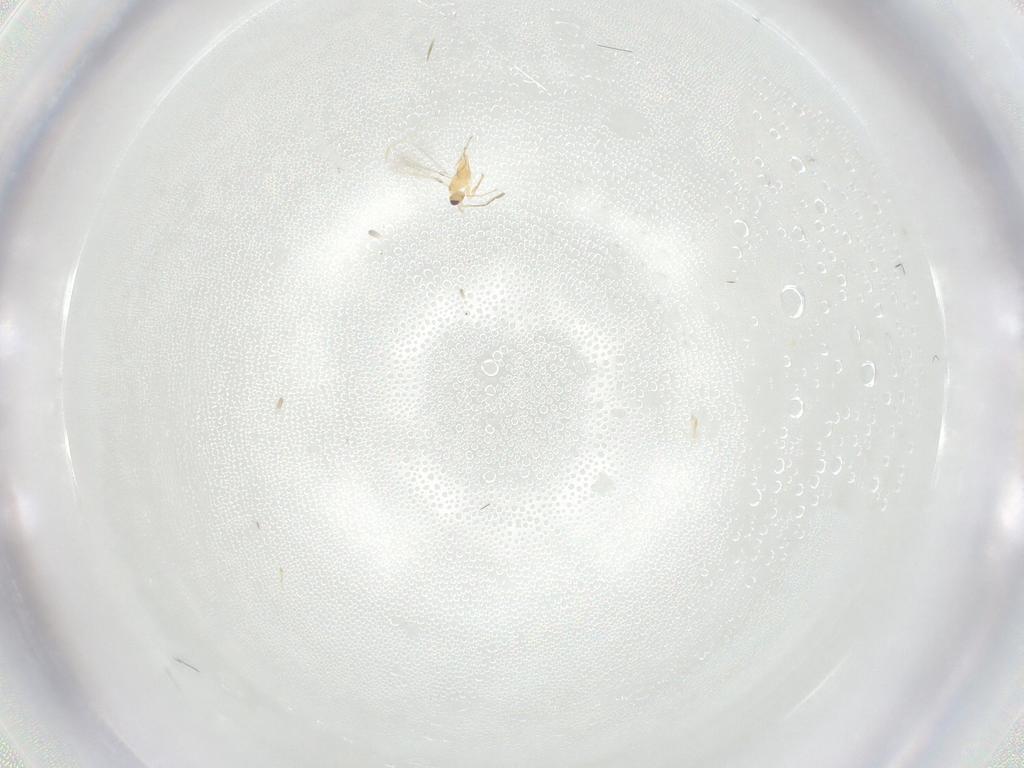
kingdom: Animalia
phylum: Arthropoda
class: Insecta
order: Hymenoptera
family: Mymaridae
